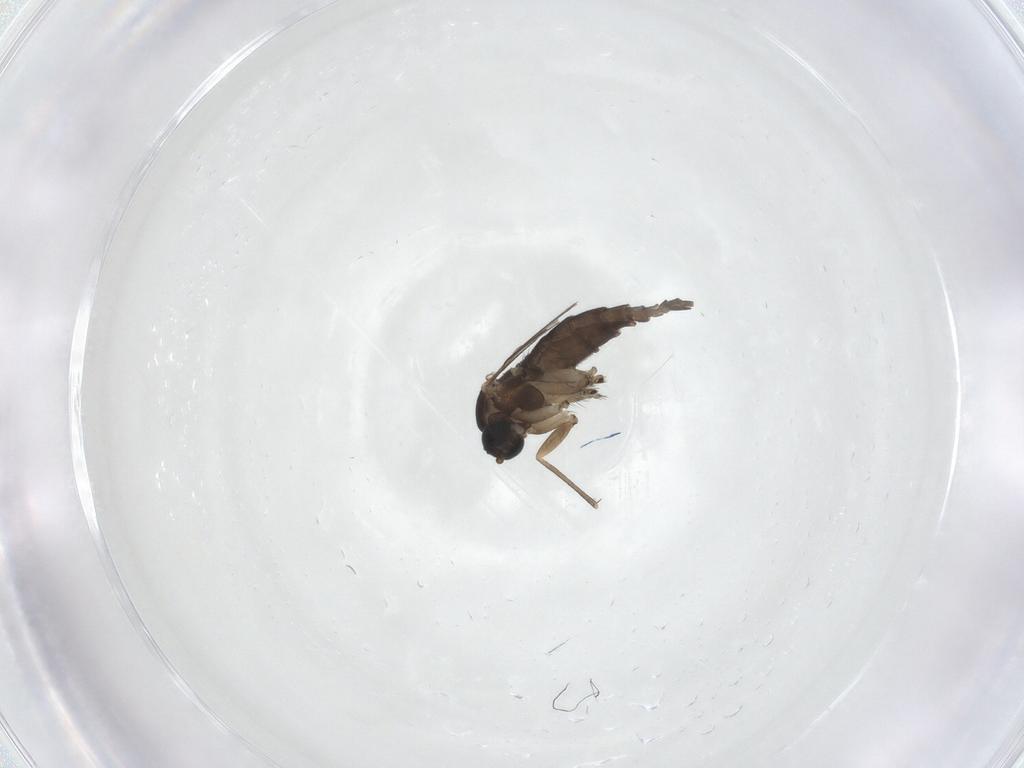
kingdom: Animalia
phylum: Arthropoda
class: Insecta
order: Diptera
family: Sciaridae
